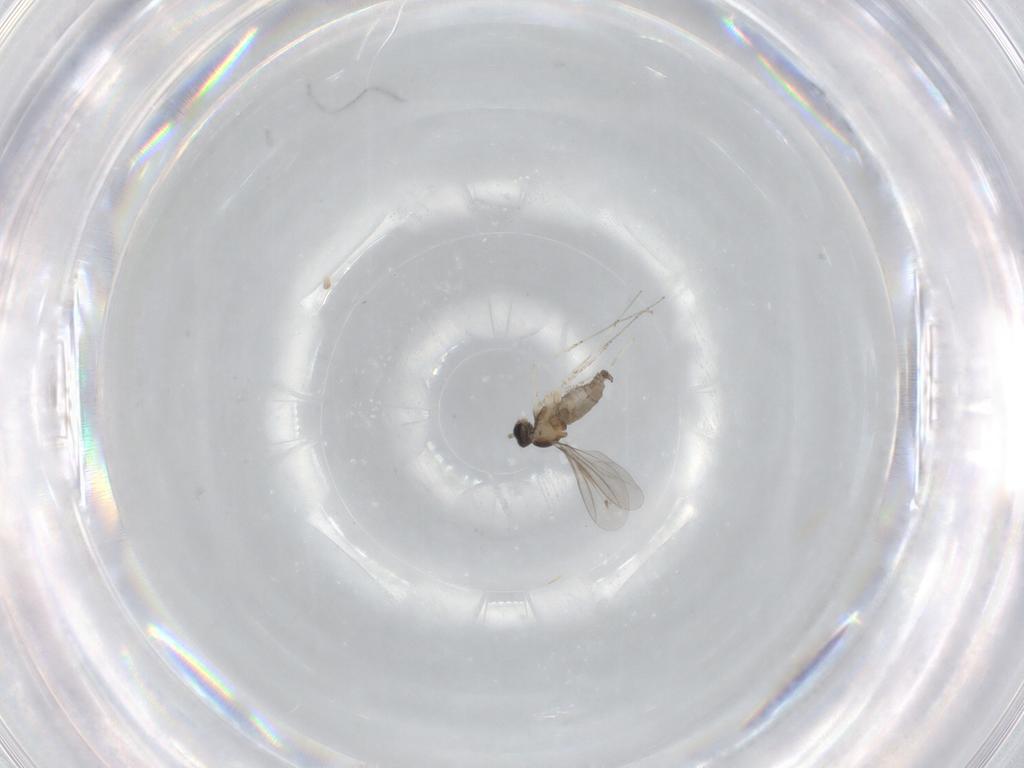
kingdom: Animalia
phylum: Arthropoda
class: Insecta
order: Diptera
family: Cecidomyiidae
